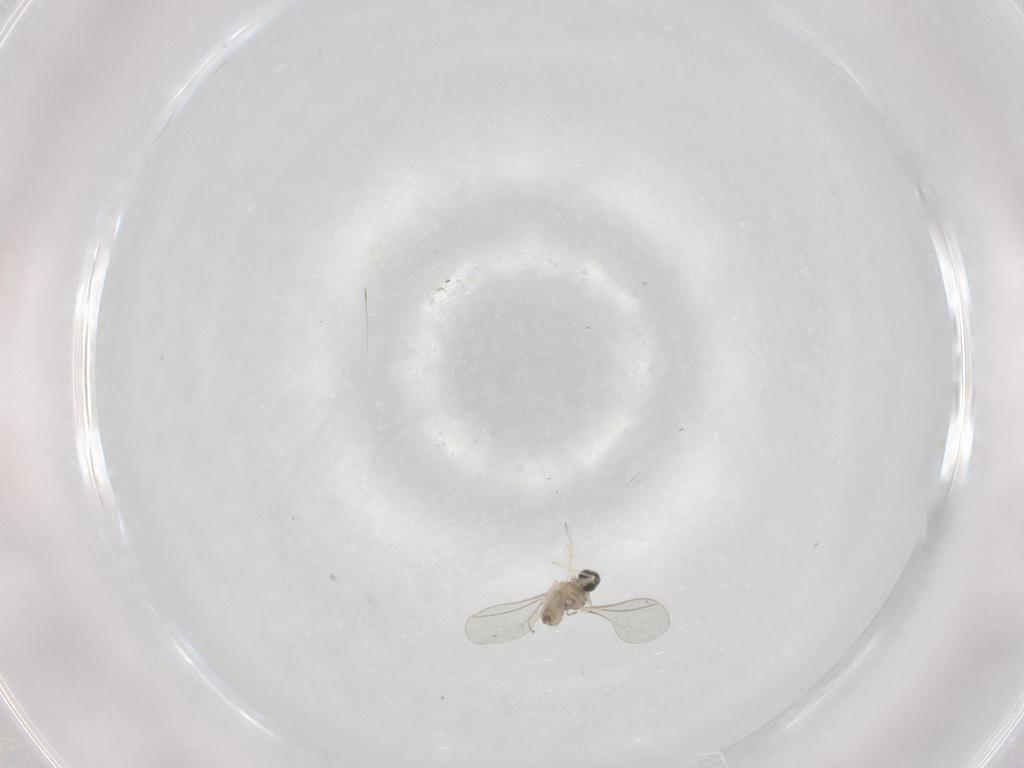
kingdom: Animalia
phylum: Arthropoda
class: Insecta
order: Diptera
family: Cecidomyiidae
